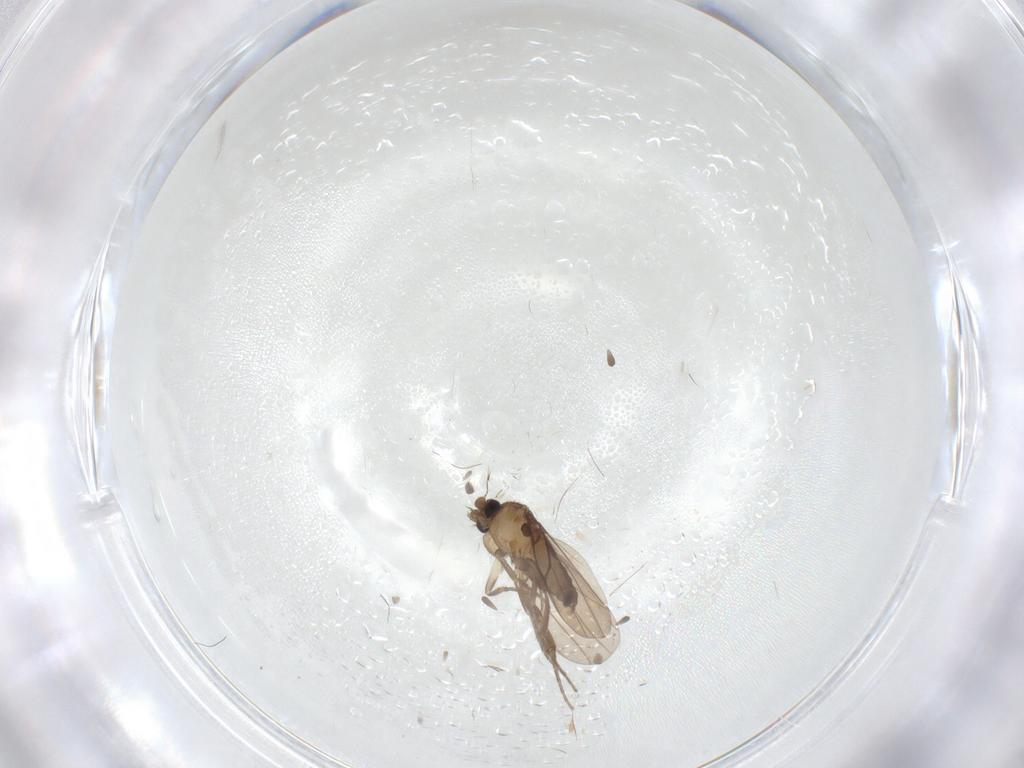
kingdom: Animalia
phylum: Arthropoda
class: Insecta
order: Diptera
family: Chironomidae
